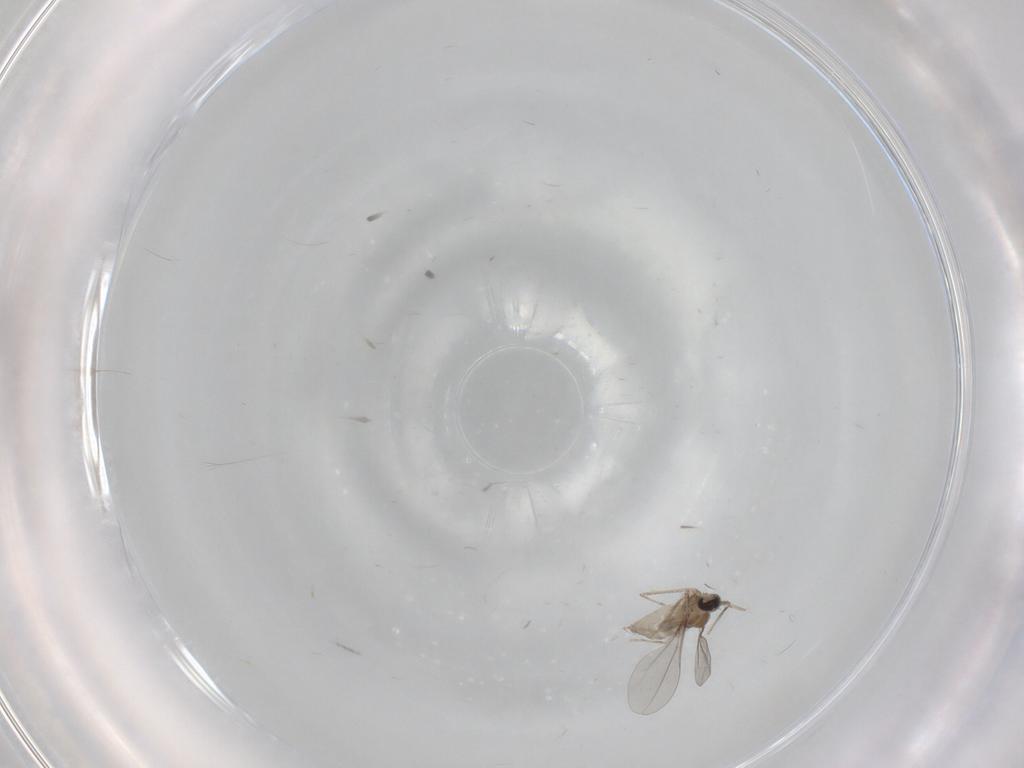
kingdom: Animalia
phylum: Arthropoda
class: Insecta
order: Diptera
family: Cecidomyiidae
